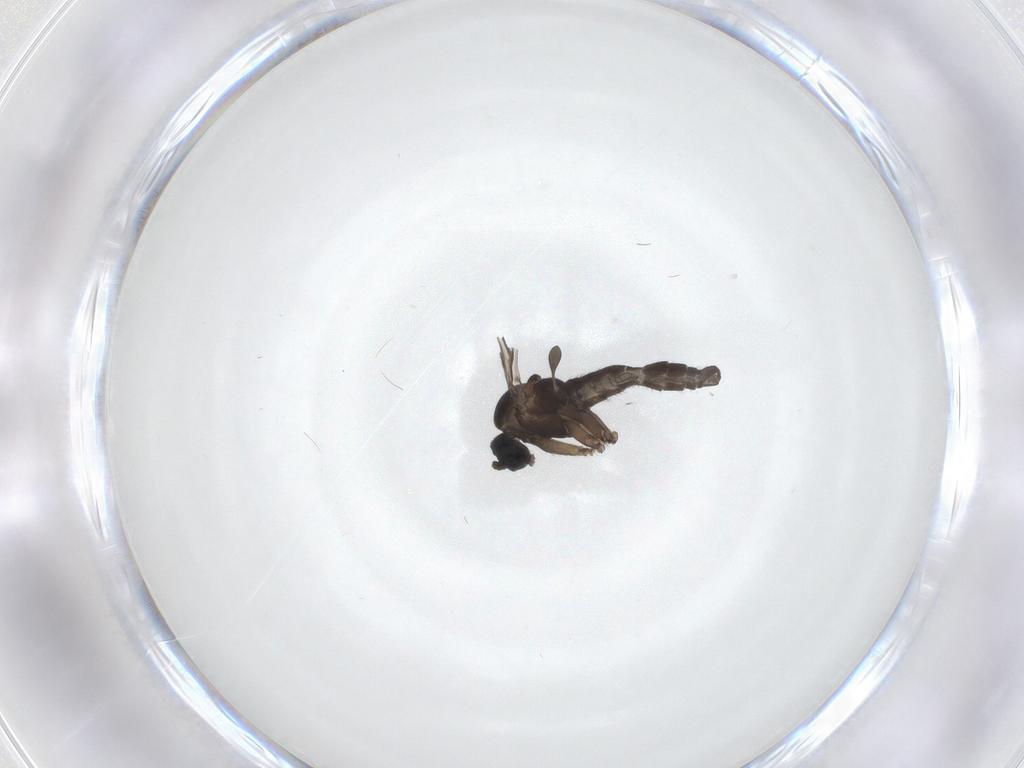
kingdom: Animalia
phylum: Arthropoda
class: Insecta
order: Diptera
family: Sciaridae
